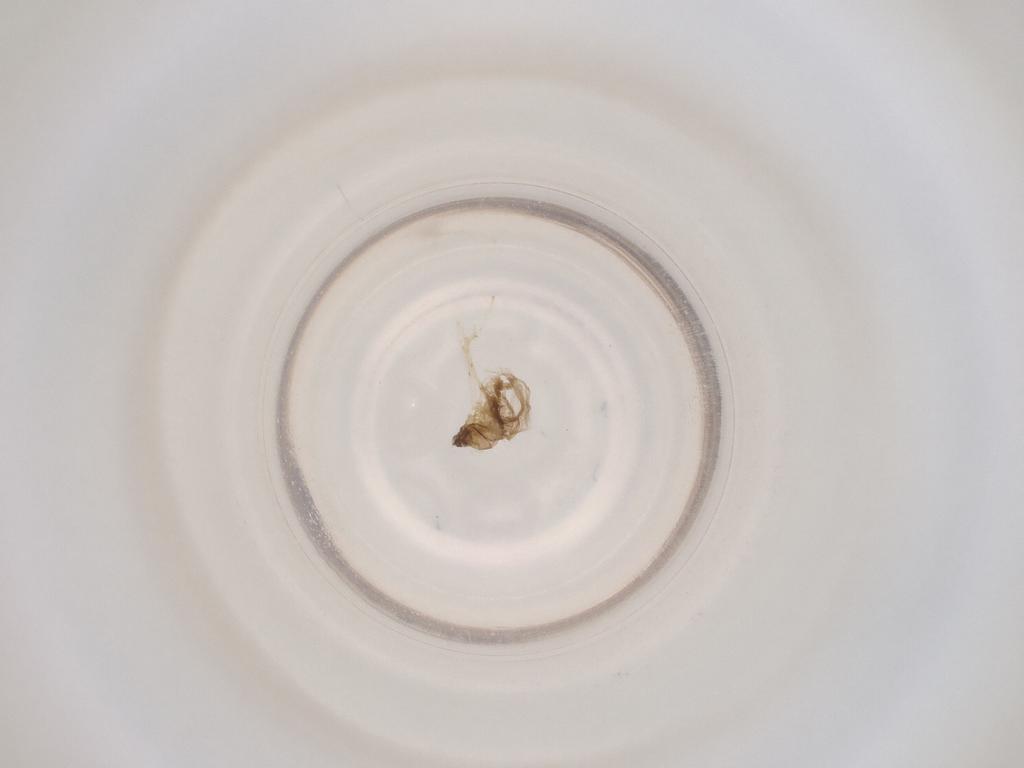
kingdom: Animalia
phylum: Arthropoda
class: Insecta
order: Diptera
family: Cecidomyiidae
